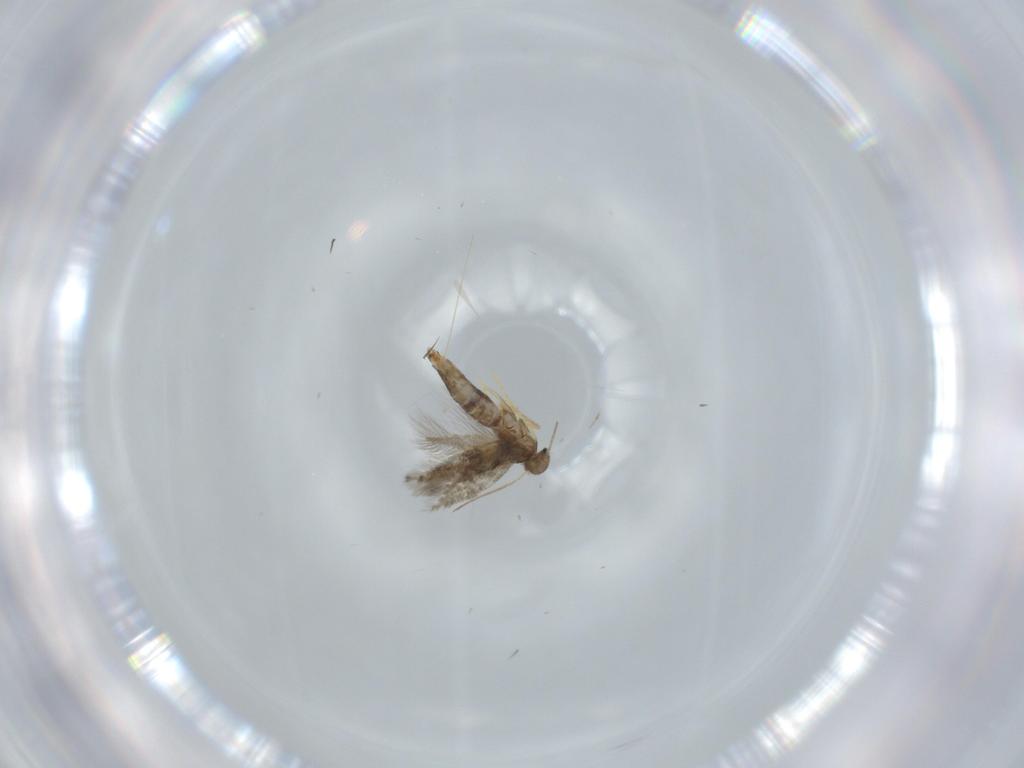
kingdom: Animalia
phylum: Arthropoda
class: Insecta
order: Lepidoptera
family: Heliozelidae
